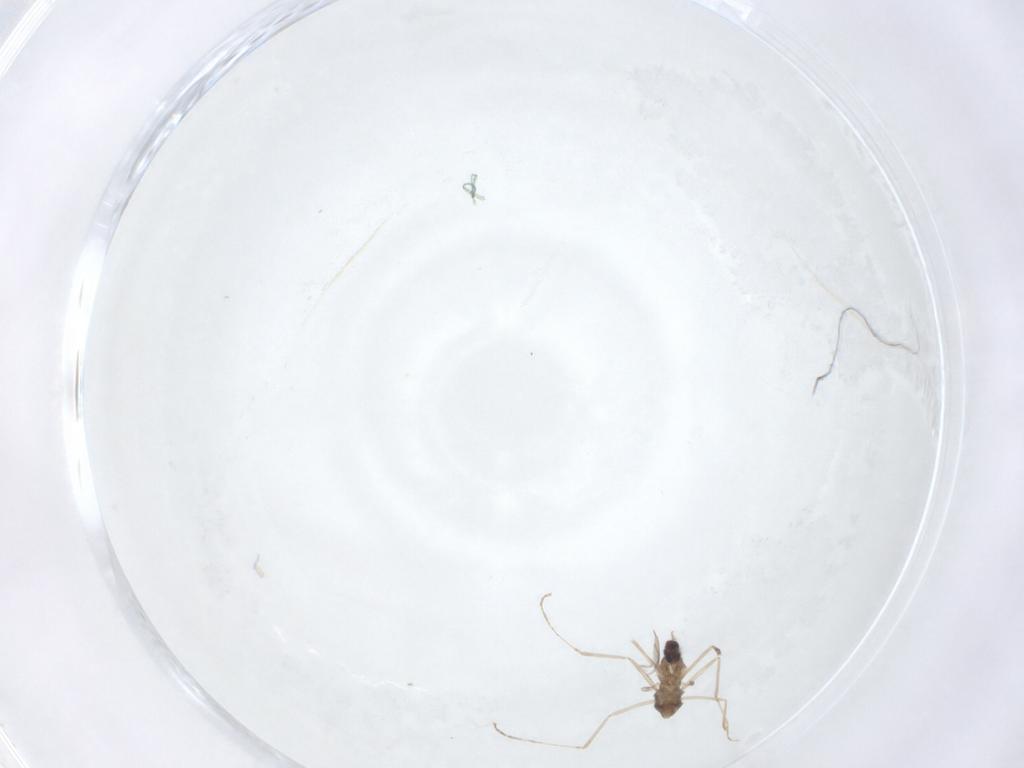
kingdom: Animalia
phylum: Arthropoda
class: Insecta
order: Diptera
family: Cecidomyiidae
